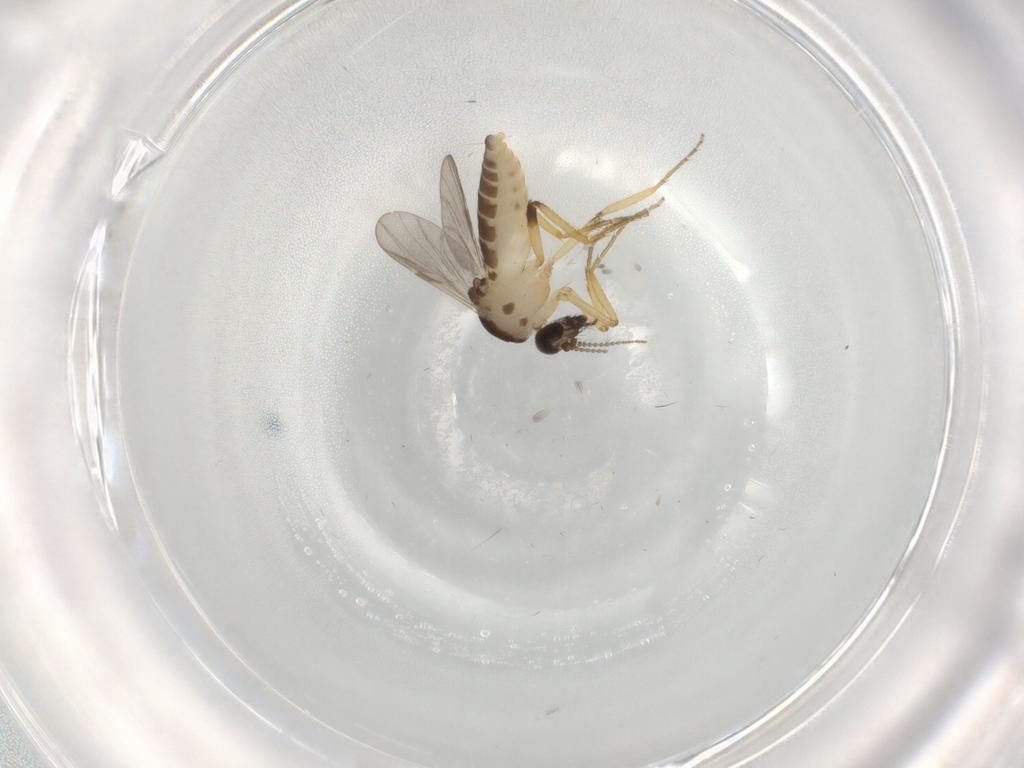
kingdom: Animalia
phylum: Arthropoda
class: Insecta
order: Diptera
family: Ceratopogonidae
